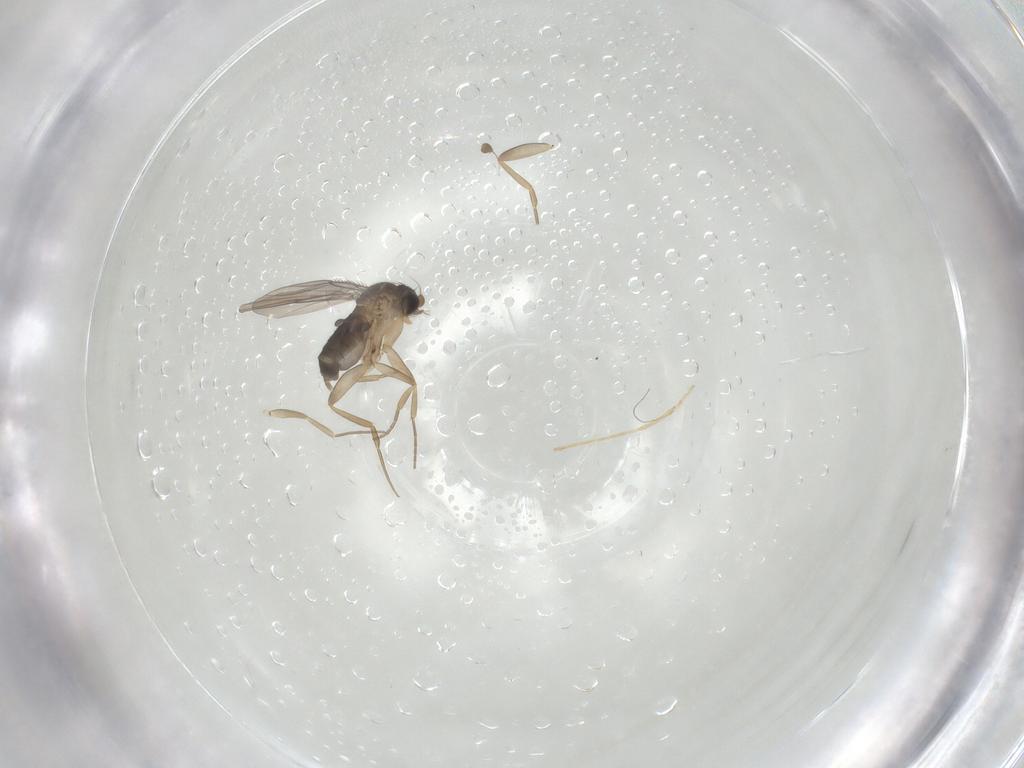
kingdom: Animalia
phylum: Arthropoda
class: Insecta
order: Diptera
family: Phoridae
